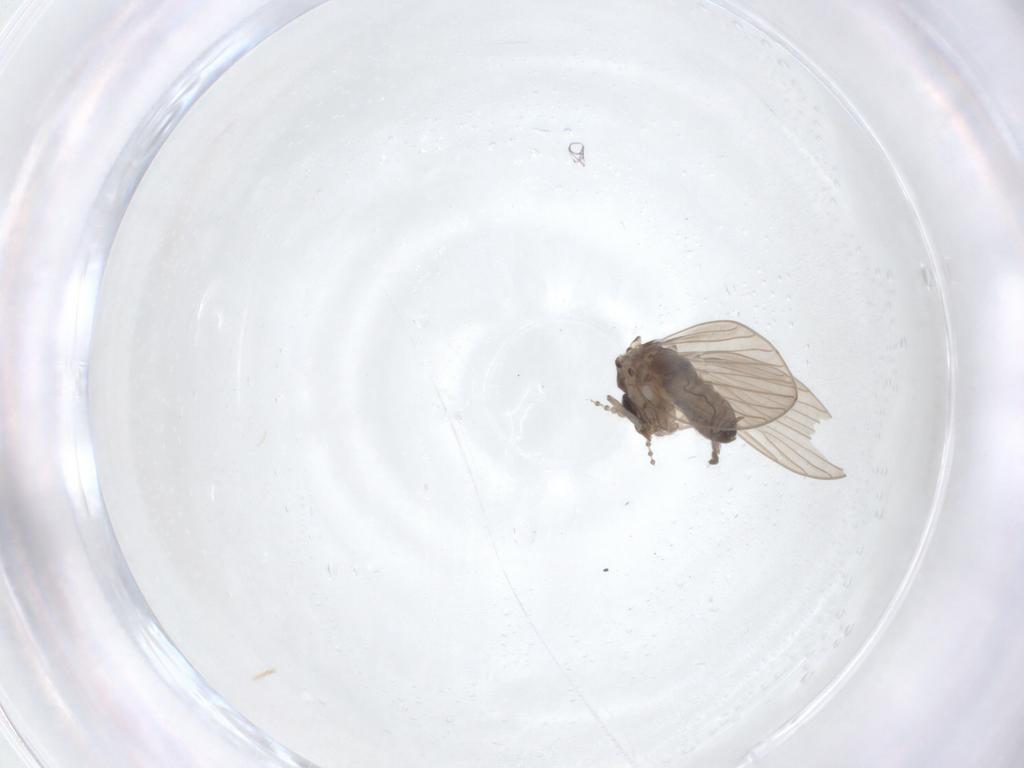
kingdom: Animalia
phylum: Arthropoda
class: Insecta
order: Diptera
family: Psychodidae
